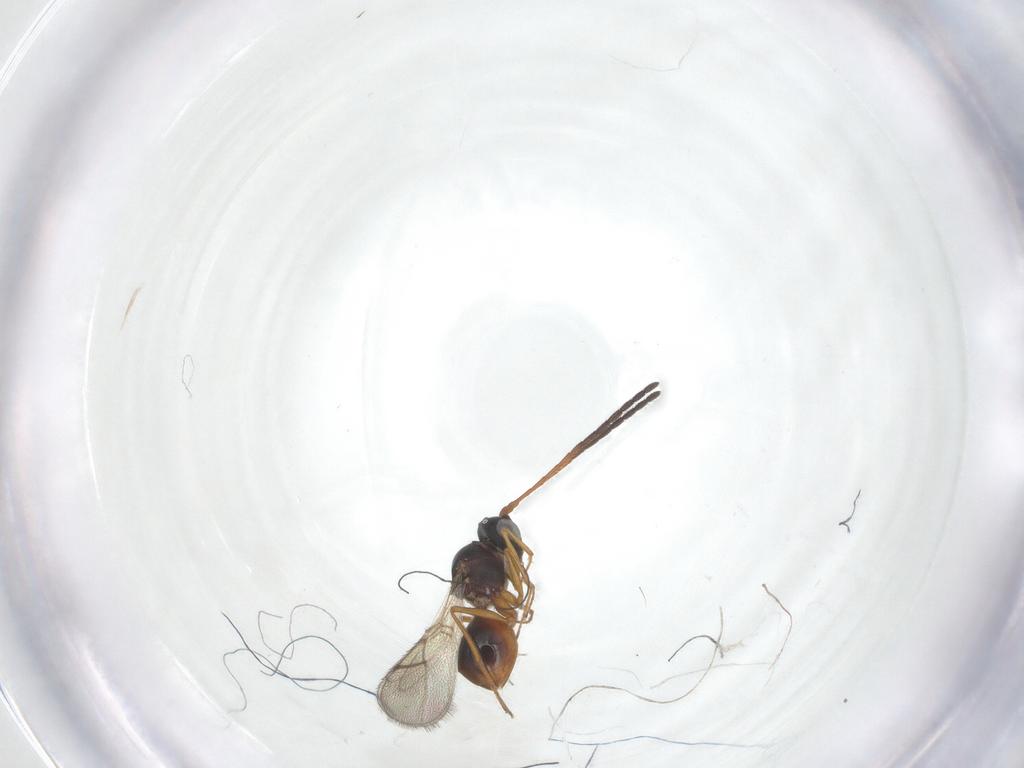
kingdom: Animalia
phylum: Arthropoda
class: Insecta
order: Hymenoptera
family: Figitidae
